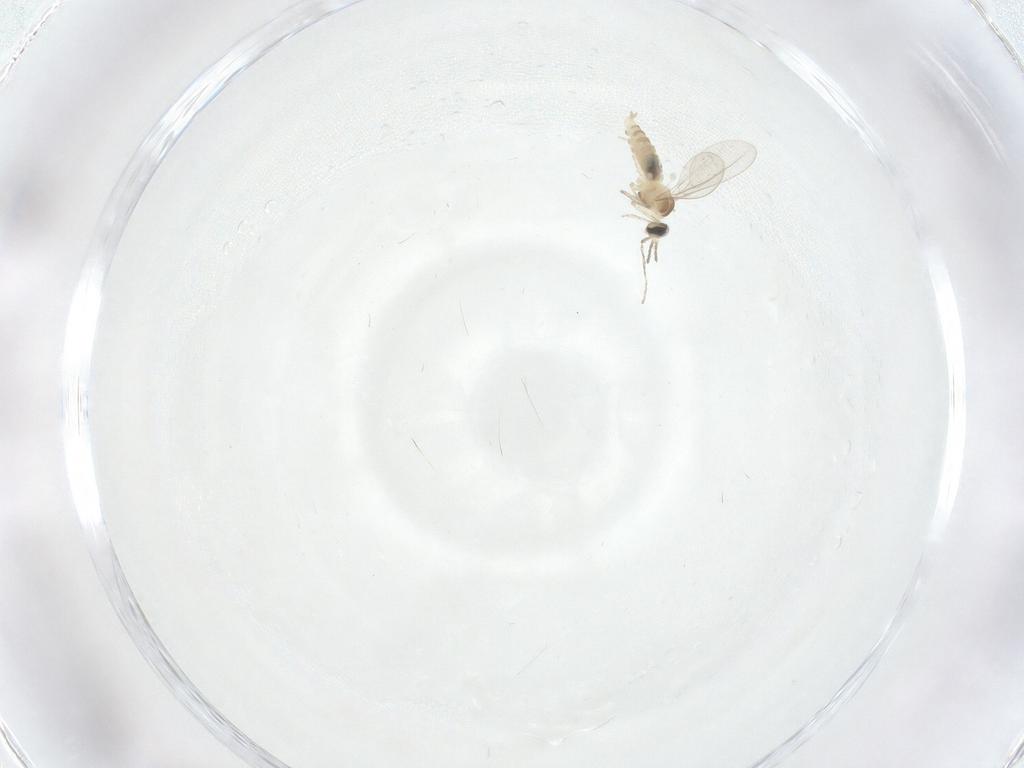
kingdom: Animalia
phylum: Arthropoda
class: Insecta
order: Diptera
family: Cecidomyiidae
